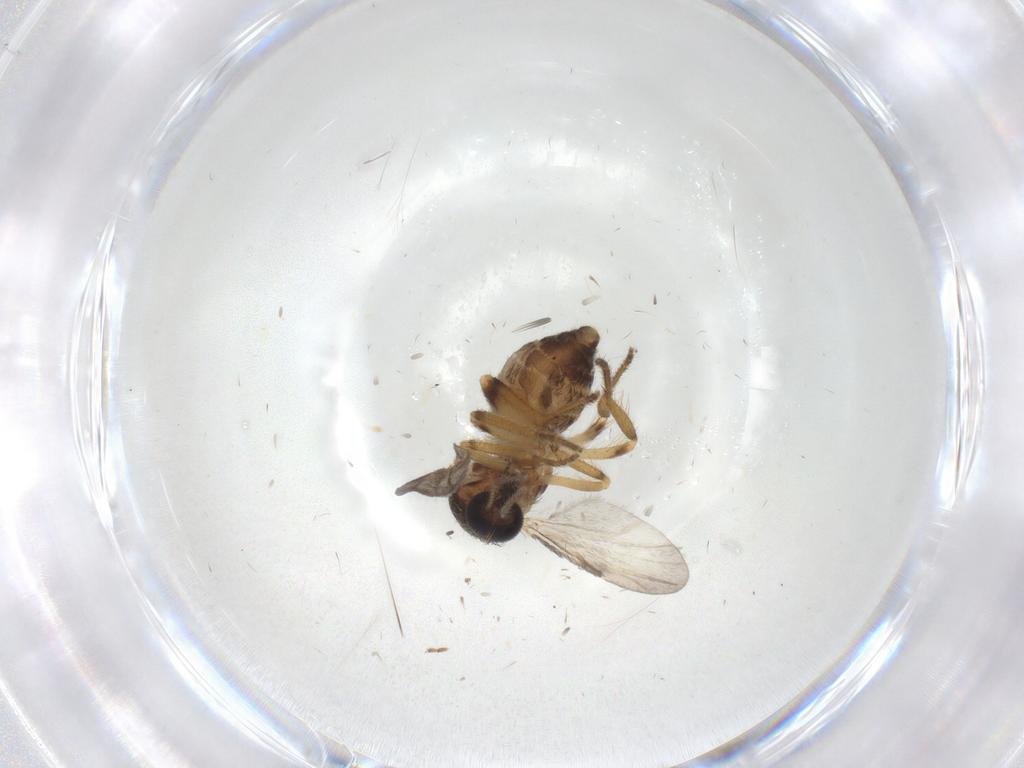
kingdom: Animalia
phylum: Arthropoda
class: Insecta
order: Diptera
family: Ceratopogonidae
